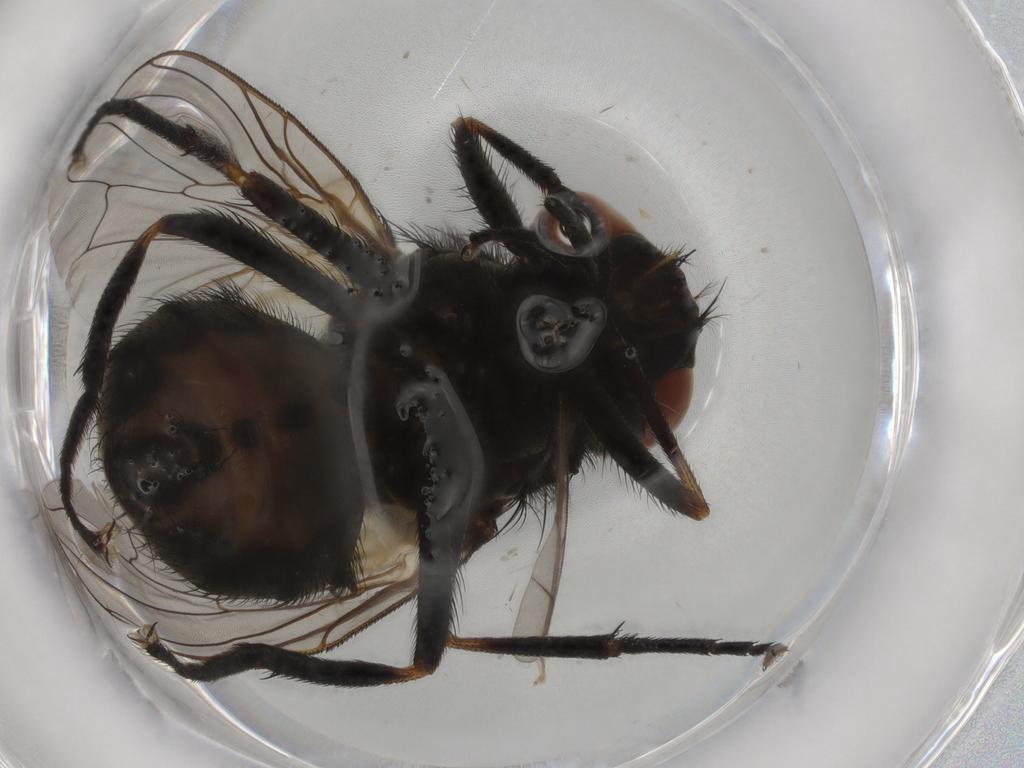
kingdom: Animalia
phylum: Arthropoda
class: Insecta
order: Diptera
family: Muscidae
